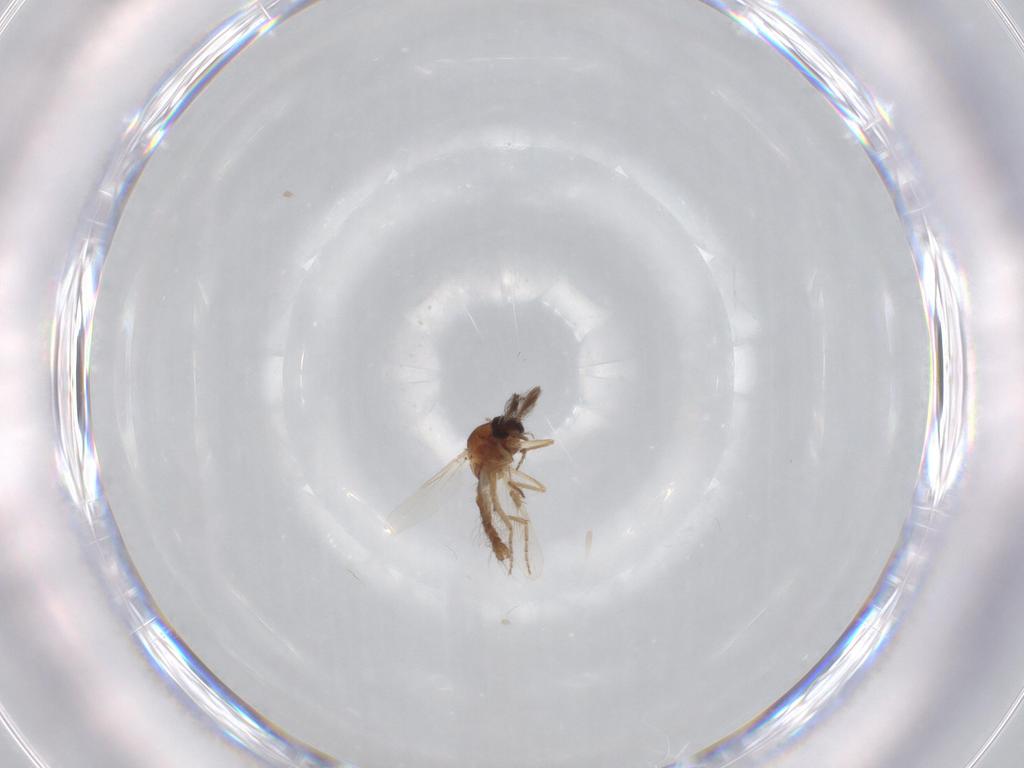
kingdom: Animalia
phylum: Arthropoda
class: Insecta
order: Diptera
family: Ceratopogonidae
